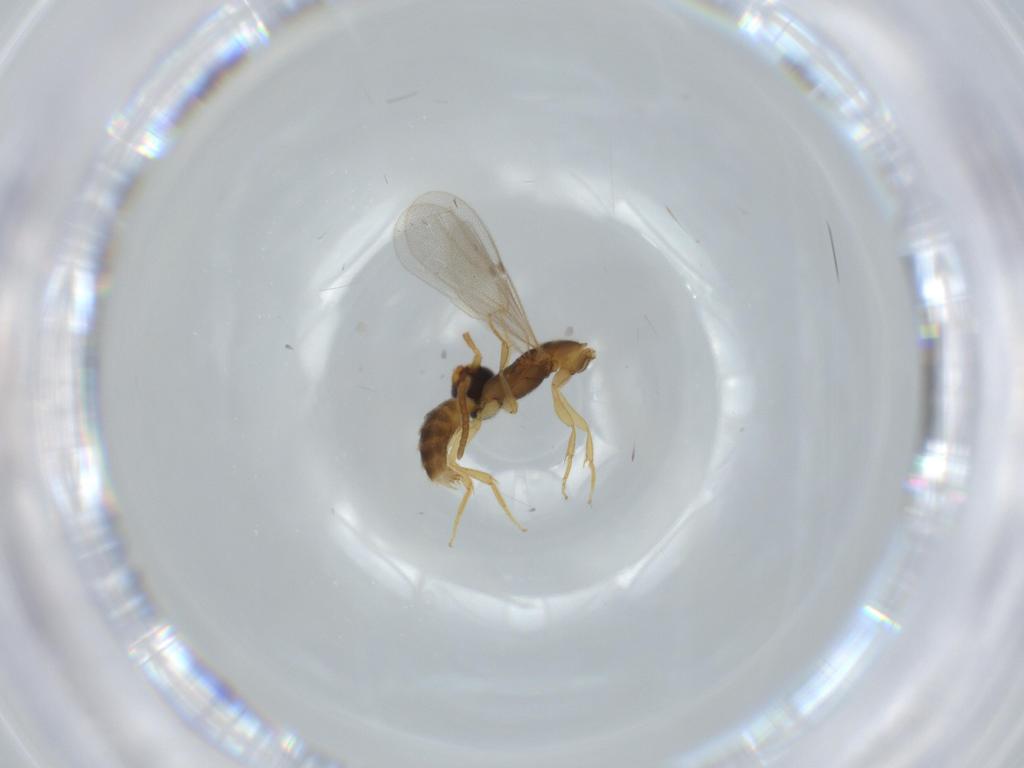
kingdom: Animalia
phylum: Arthropoda
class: Insecta
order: Hymenoptera
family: Bethylidae
